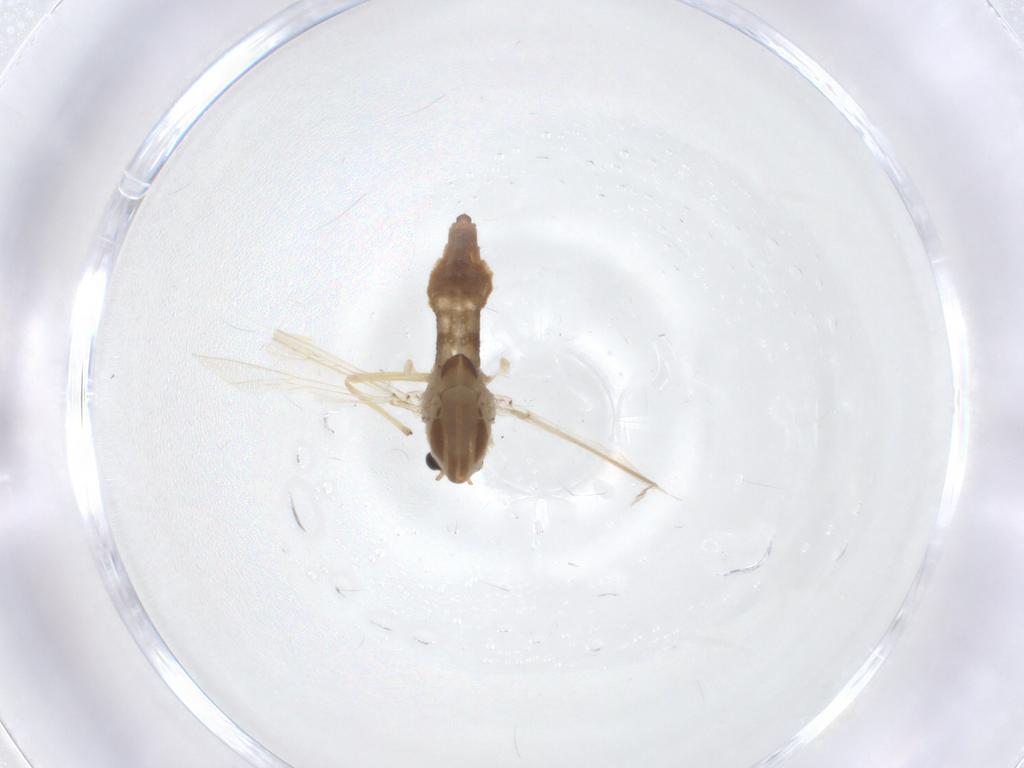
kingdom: Animalia
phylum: Arthropoda
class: Insecta
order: Diptera
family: Chironomidae
